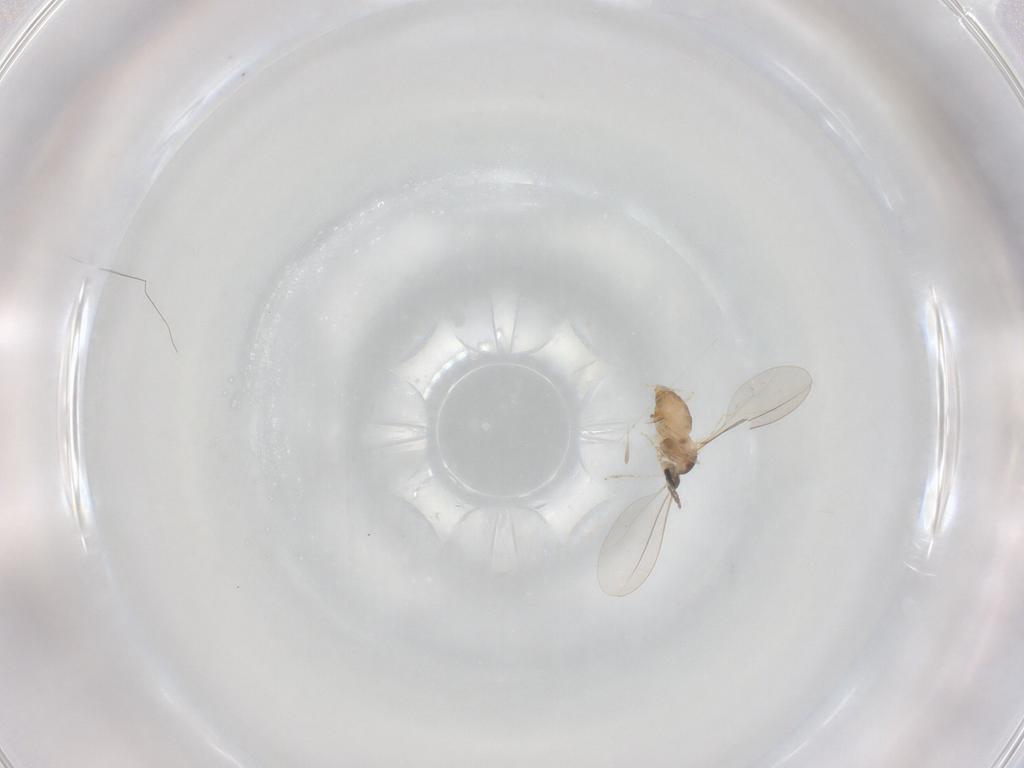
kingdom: Animalia
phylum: Arthropoda
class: Insecta
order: Diptera
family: Cecidomyiidae
